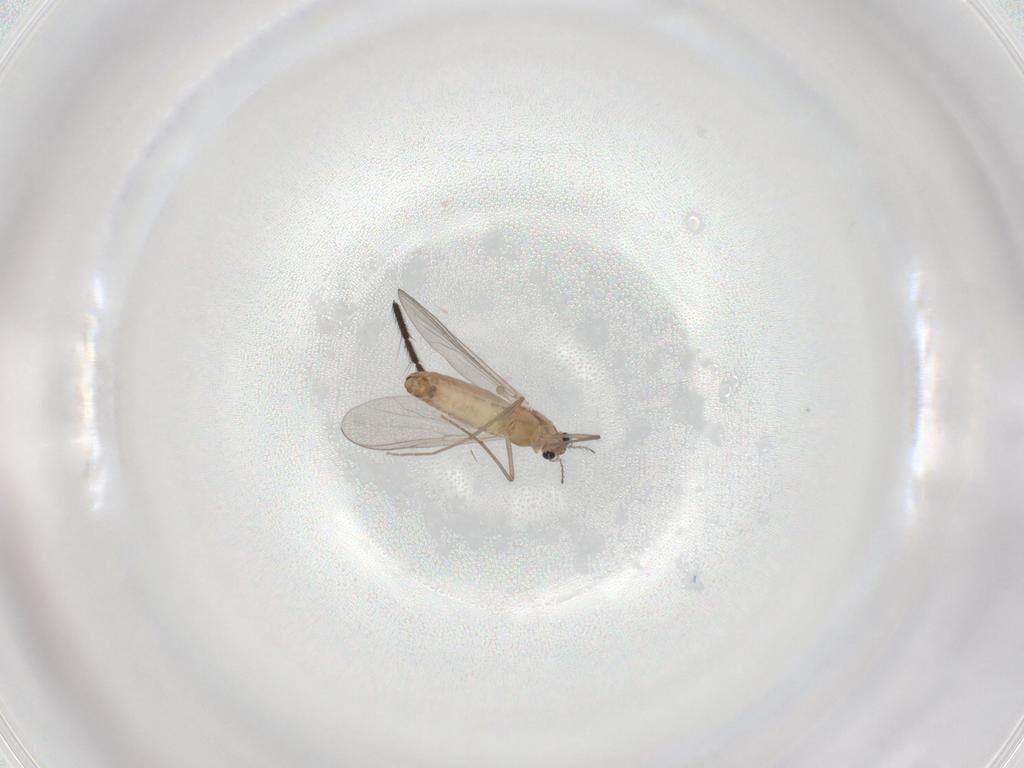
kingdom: Animalia
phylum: Arthropoda
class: Insecta
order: Diptera
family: Chironomidae
